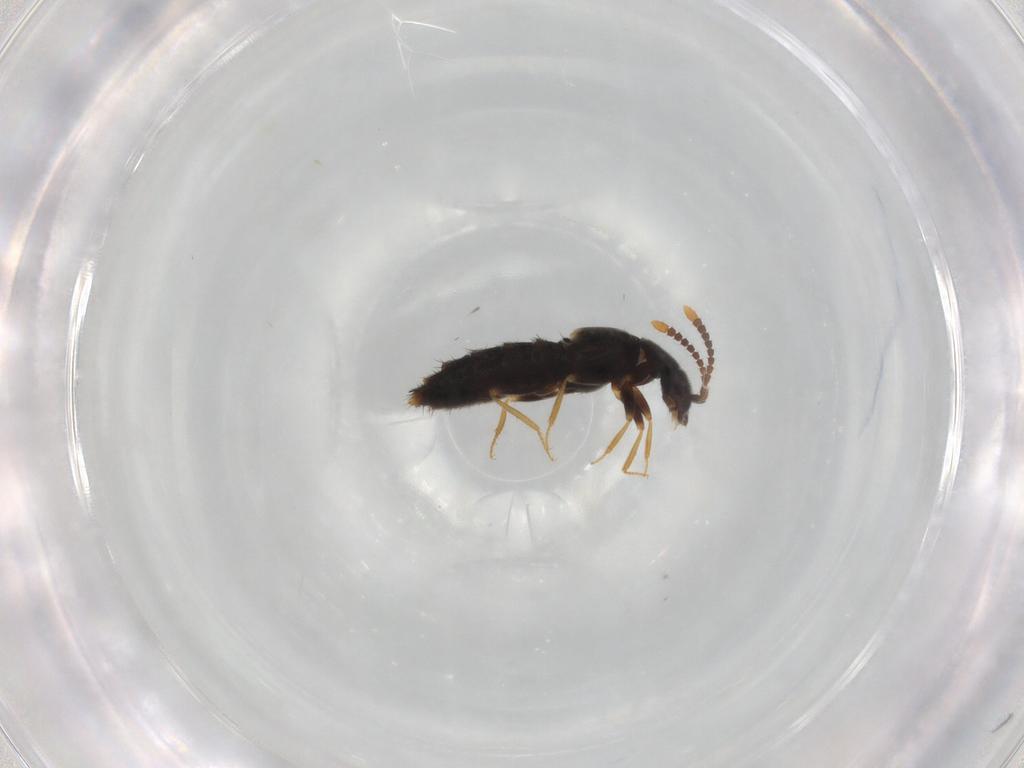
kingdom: Animalia
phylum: Arthropoda
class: Insecta
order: Coleoptera
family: Staphylinidae
